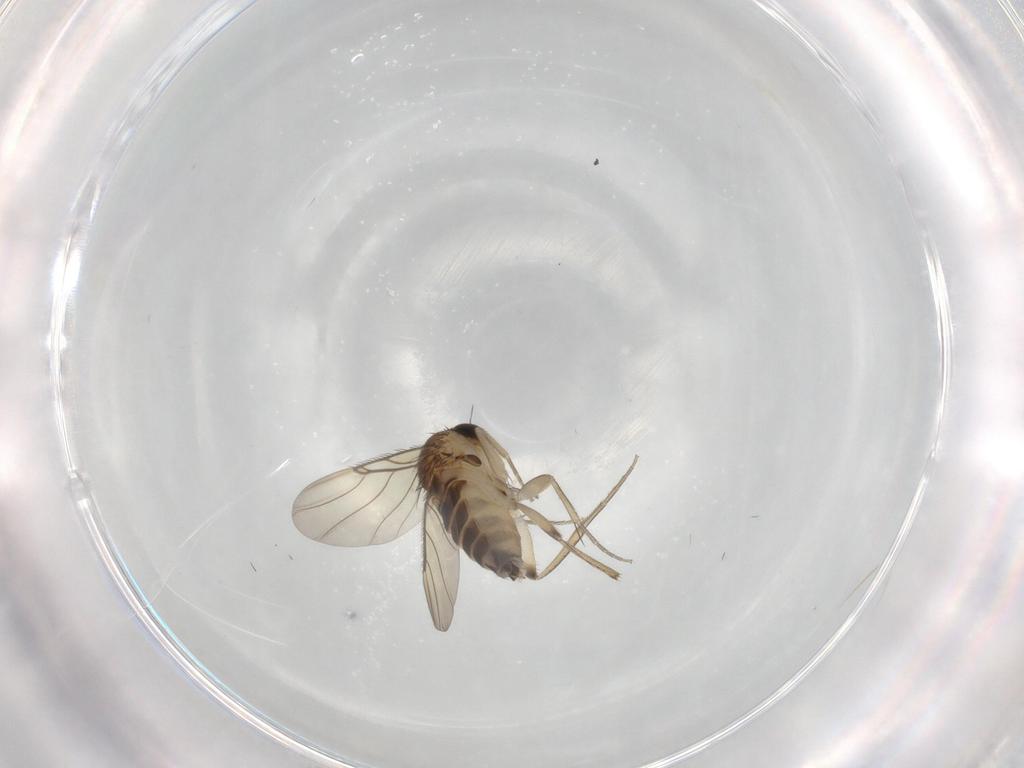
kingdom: Animalia
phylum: Arthropoda
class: Insecta
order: Diptera
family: Phoridae
